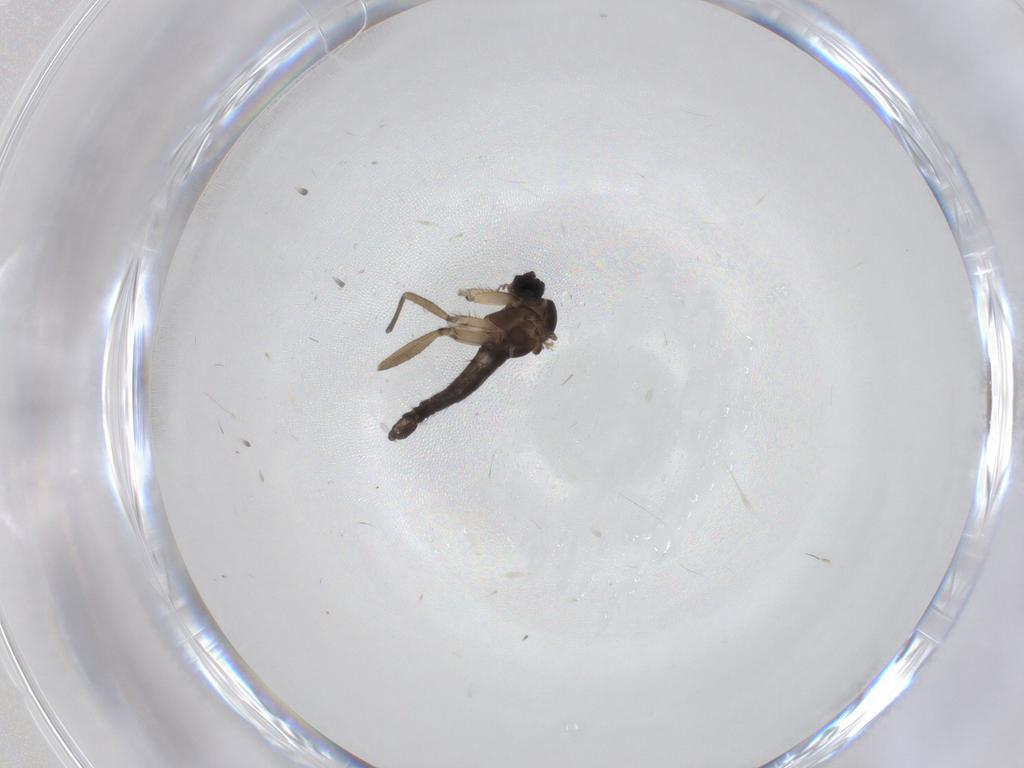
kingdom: Animalia
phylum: Arthropoda
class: Insecta
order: Diptera
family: Sciaridae
